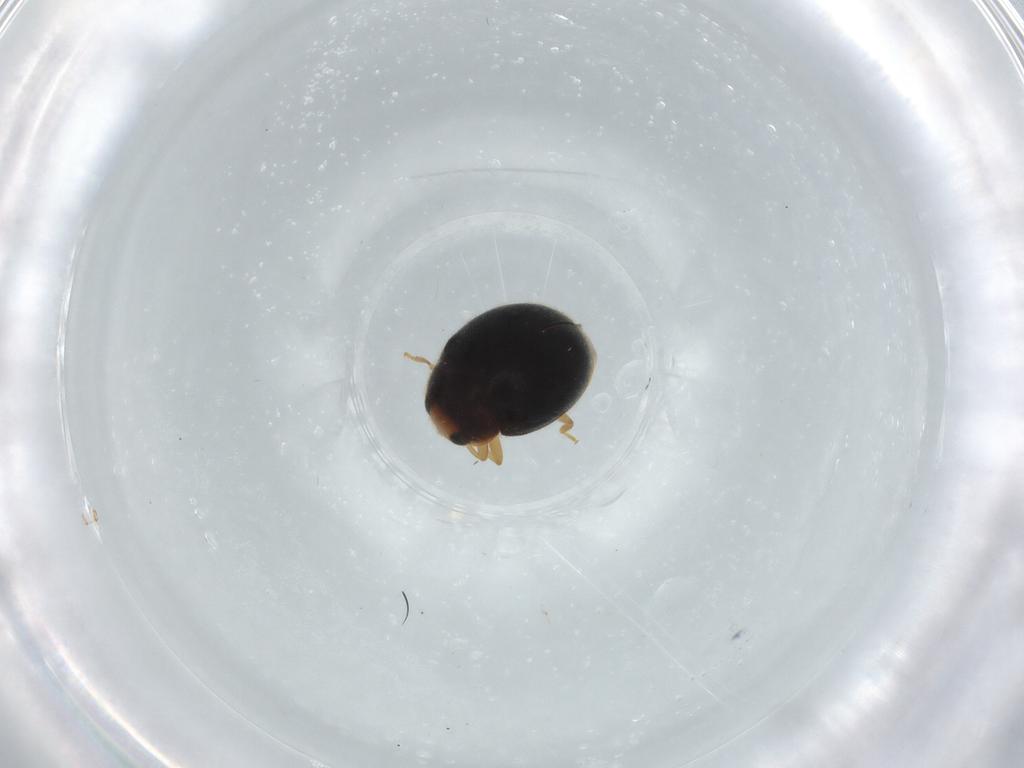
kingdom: Animalia
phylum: Arthropoda
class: Insecta
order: Coleoptera
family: Coccinellidae
